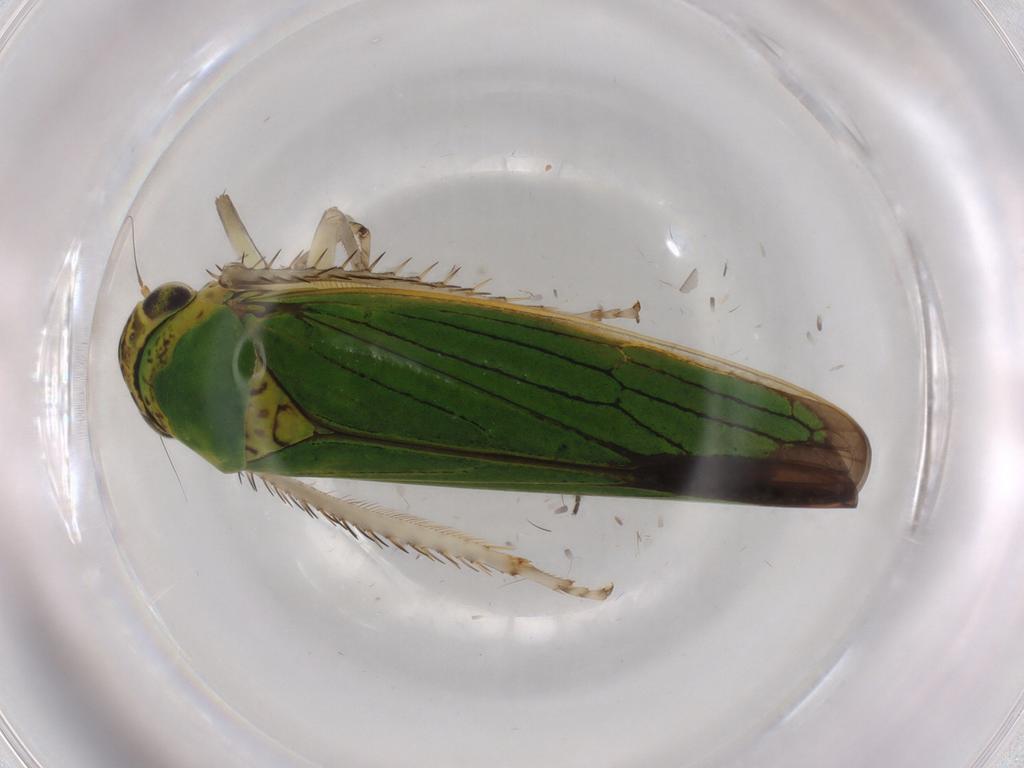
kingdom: Animalia
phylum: Arthropoda
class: Insecta
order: Hemiptera
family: Cicadellidae
